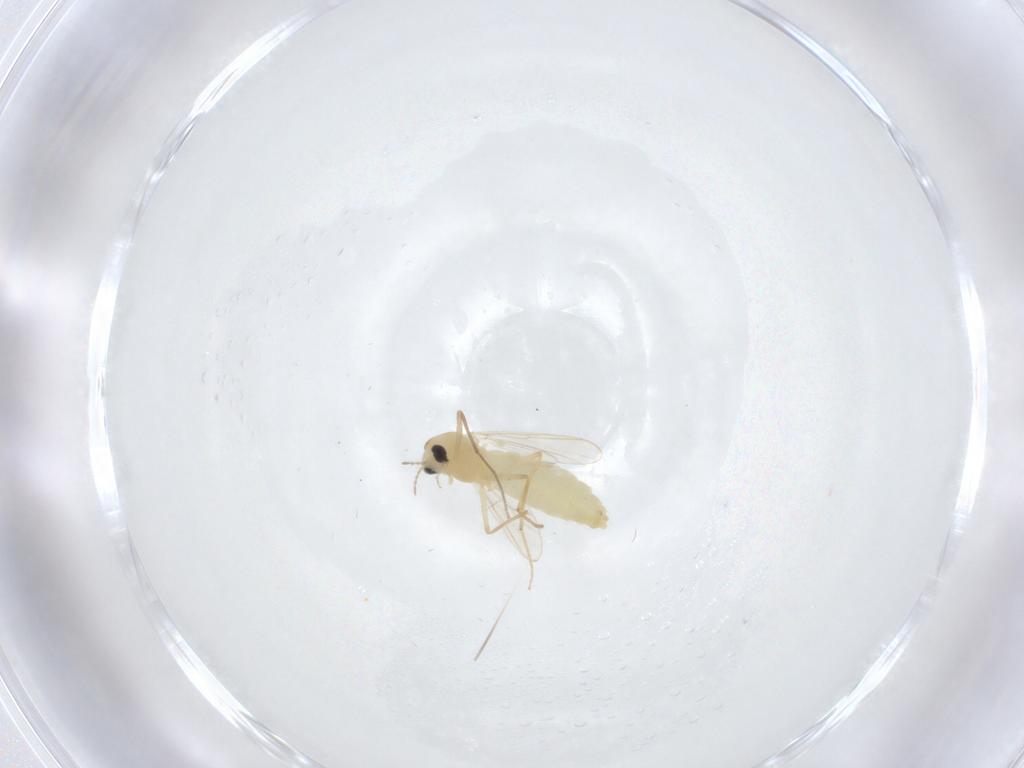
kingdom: Animalia
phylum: Arthropoda
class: Insecta
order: Diptera
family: Chironomidae
